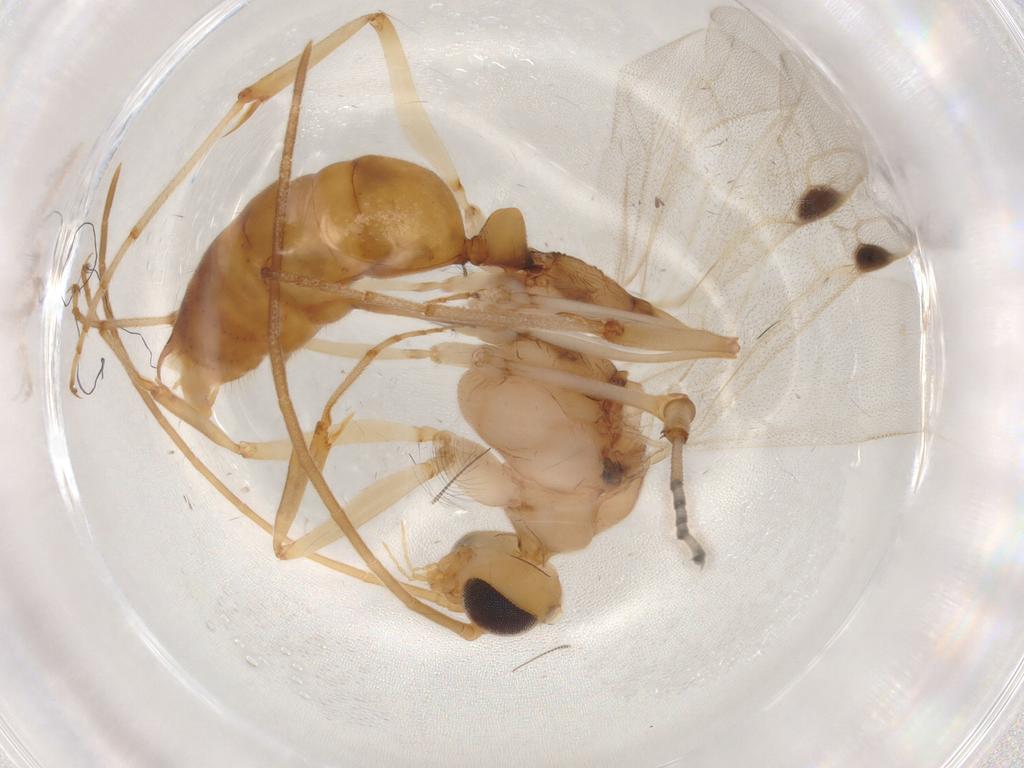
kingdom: Animalia
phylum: Arthropoda
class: Insecta
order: Hymenoptera
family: Formicidae
